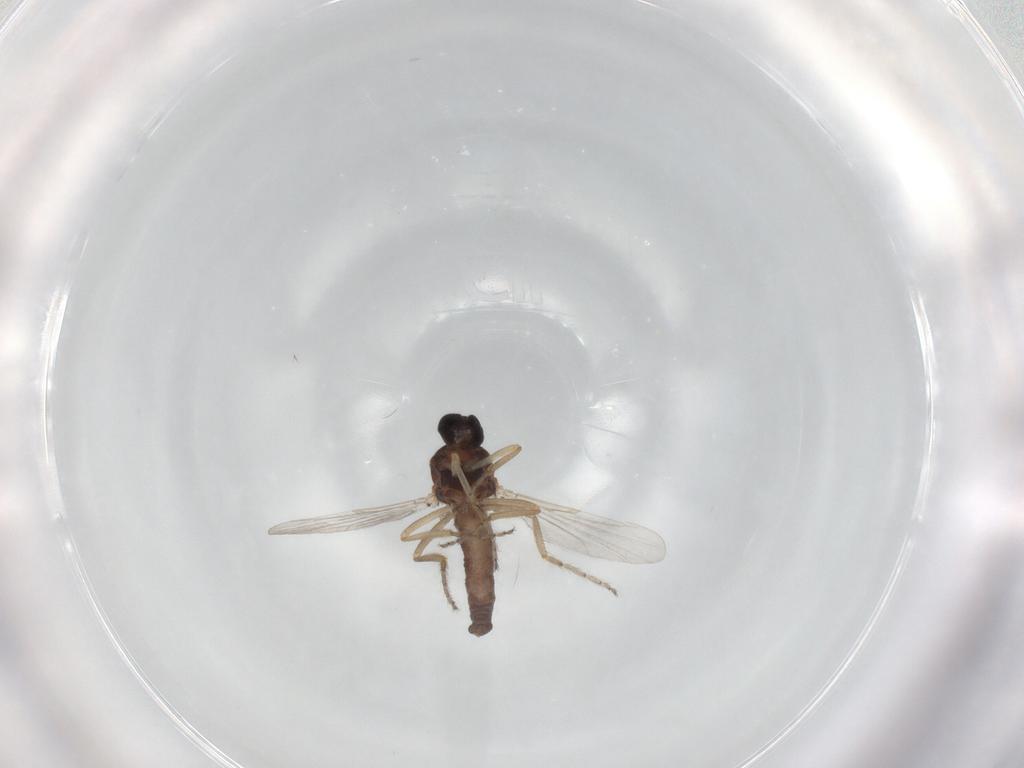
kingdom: Animalia
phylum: Arthropoda
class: Insecta
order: Diptera
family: Ceratopogonidae
